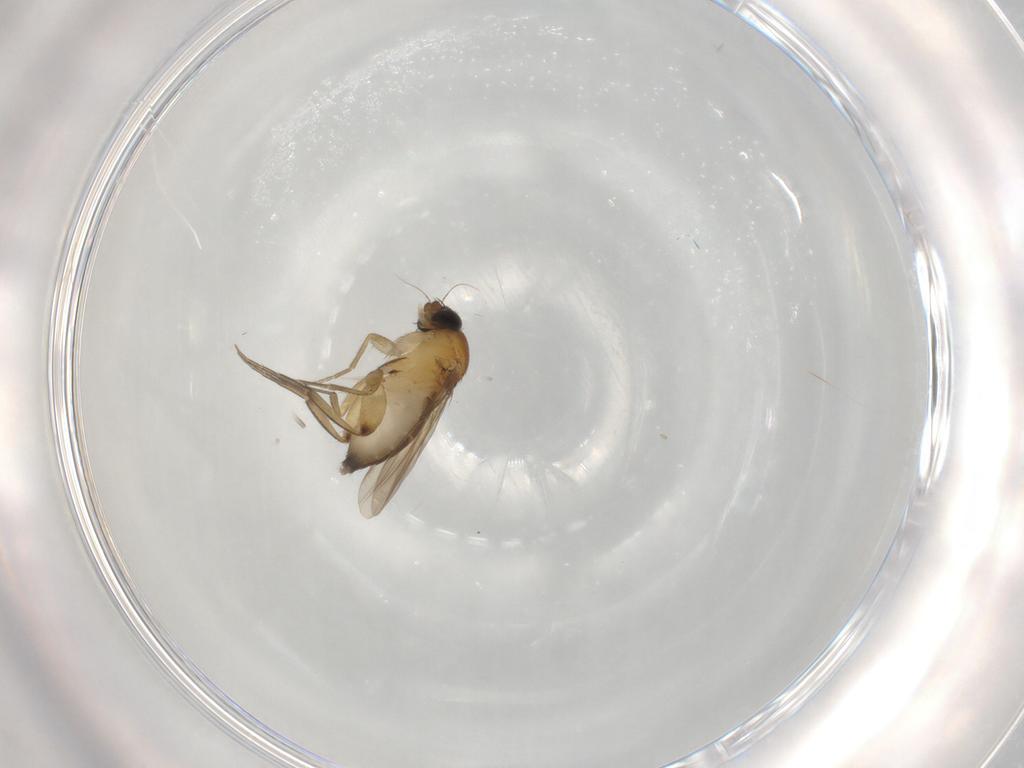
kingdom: Animalia
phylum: Arthropoda
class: Insecta
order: Diptera
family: Phoridae
